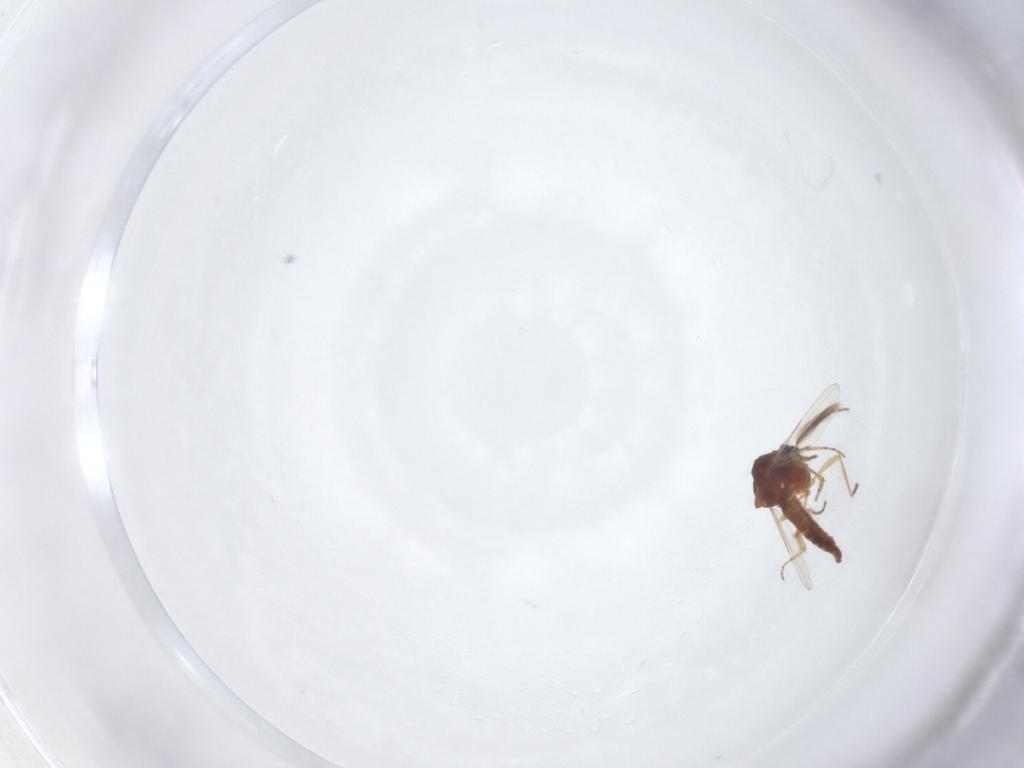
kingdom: Animalia
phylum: Arthropoda
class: Insecta
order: Diptera
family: Ceratopogonidae
